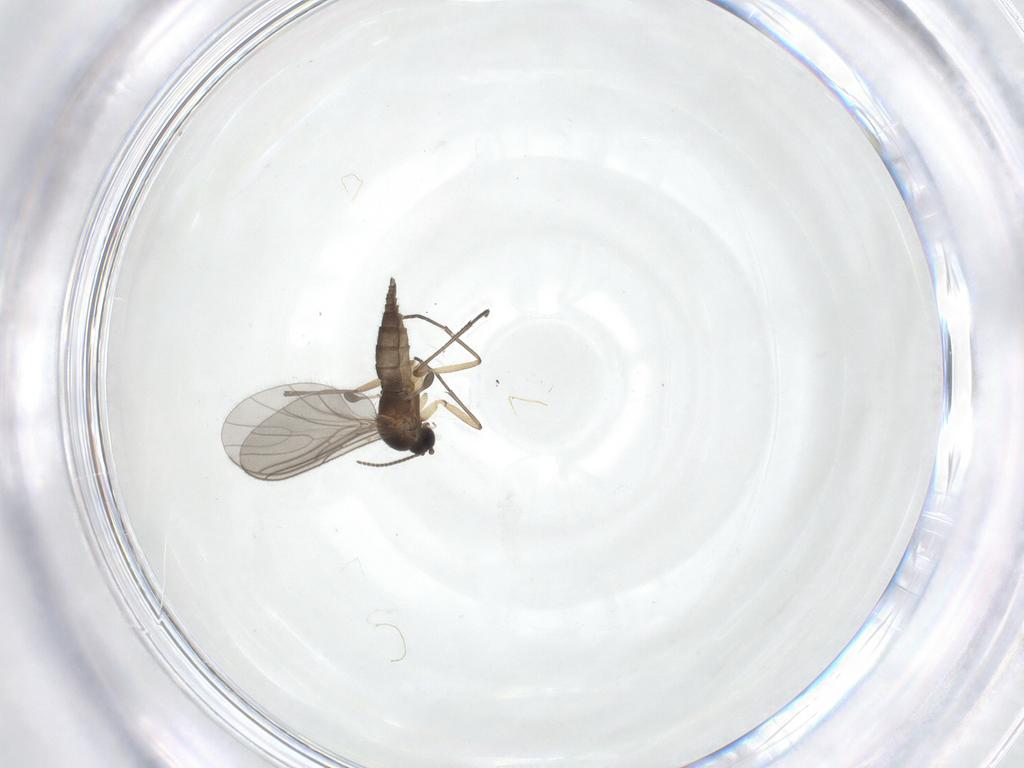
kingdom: Animalia
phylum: Arthropoda
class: Insecta
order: Diptera
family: Sciaridae
